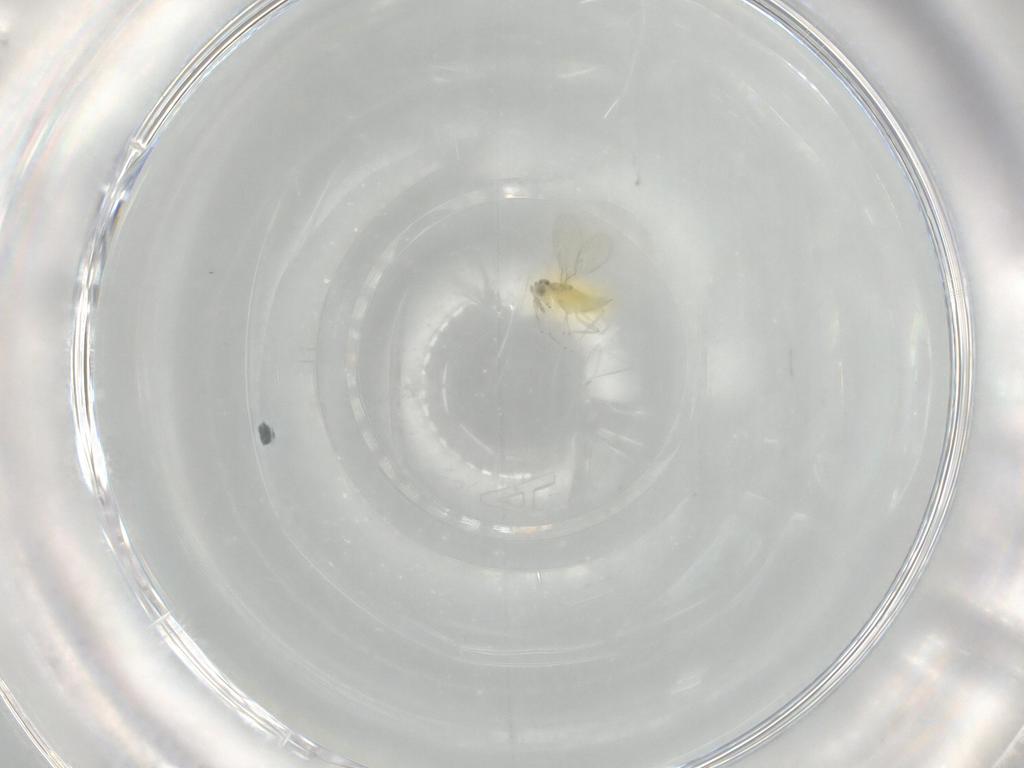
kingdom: Animalia
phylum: Arthropoda
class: Insecta
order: Hymenoptera
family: Aphelinidae
